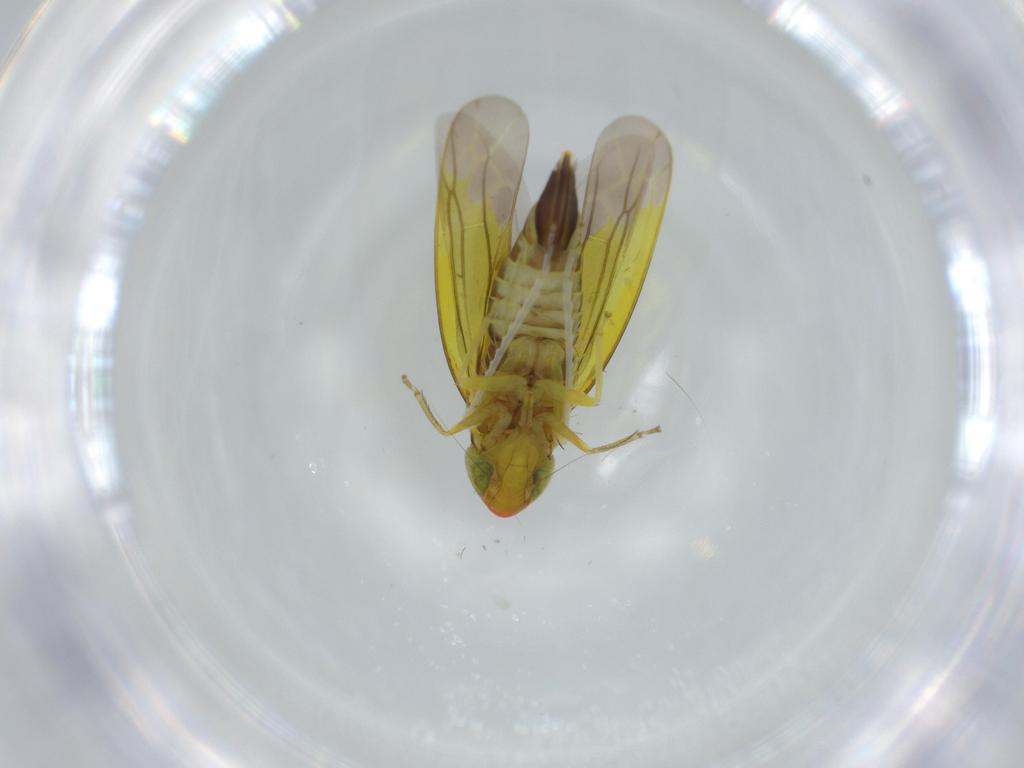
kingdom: Animalia
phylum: Arthropoda
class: Insecta
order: Hemiptera
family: Cicadellidae
